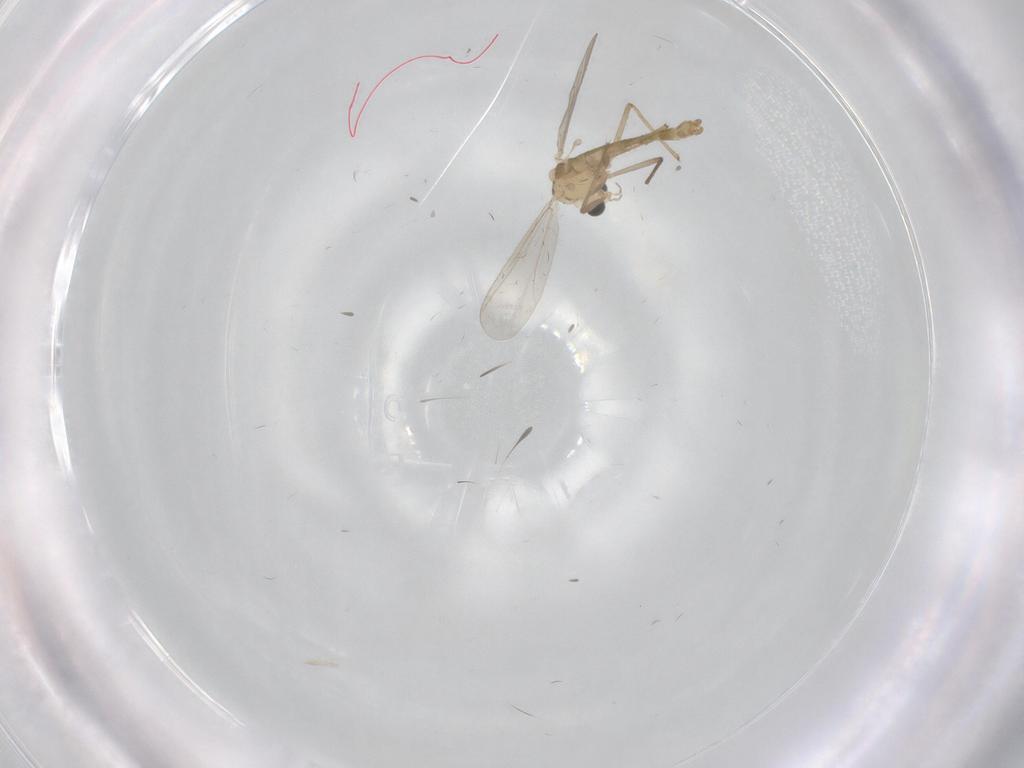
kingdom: Animalia
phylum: Arthropoda
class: Insecta
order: Diptera
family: Chironomidae
